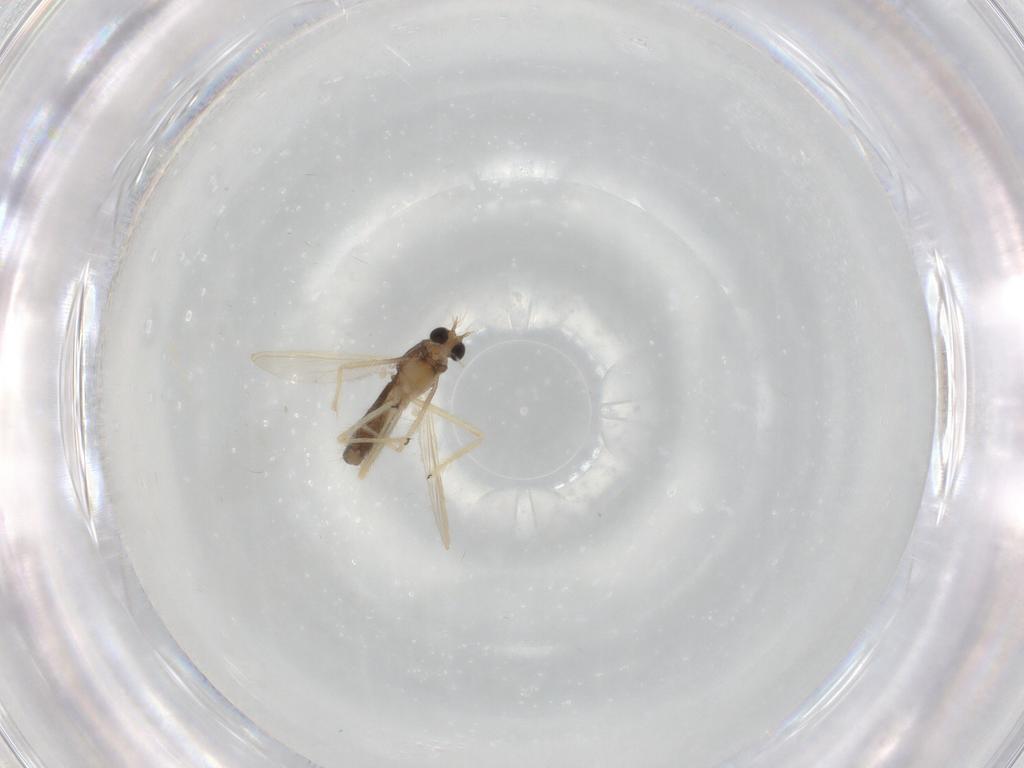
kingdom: Animalia
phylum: Arthropoda
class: Insecta
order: Diptera
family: Chironomidae
